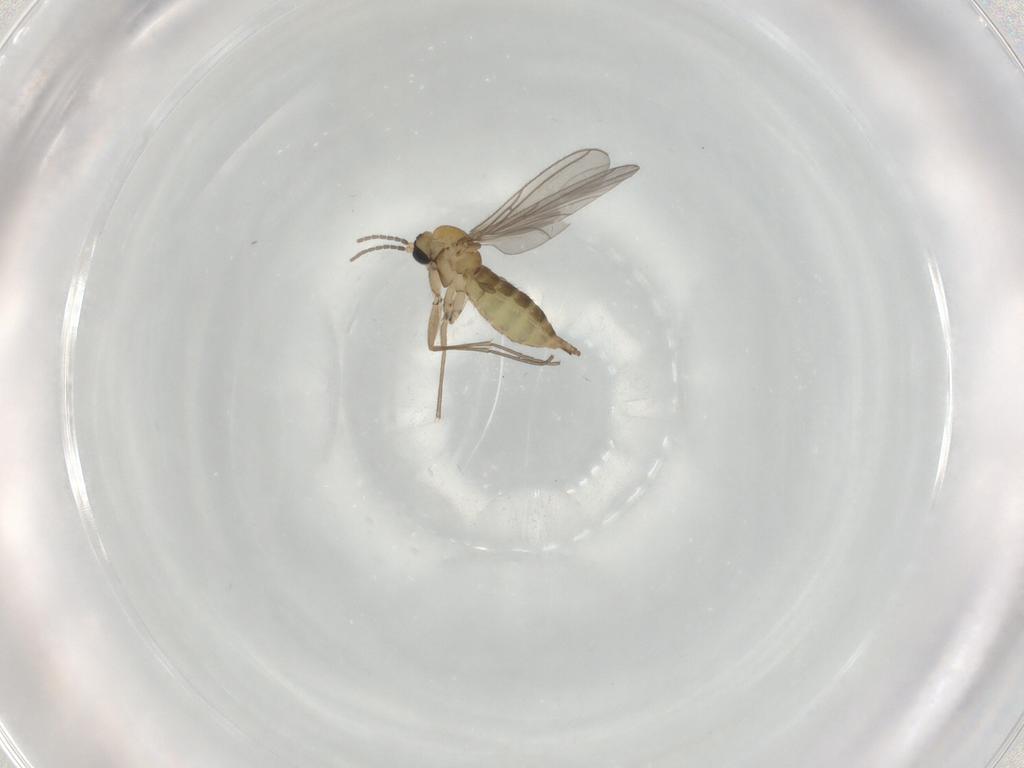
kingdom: Animalia
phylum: Arthropoda
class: Insecta
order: Diptera
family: Sciaridae
